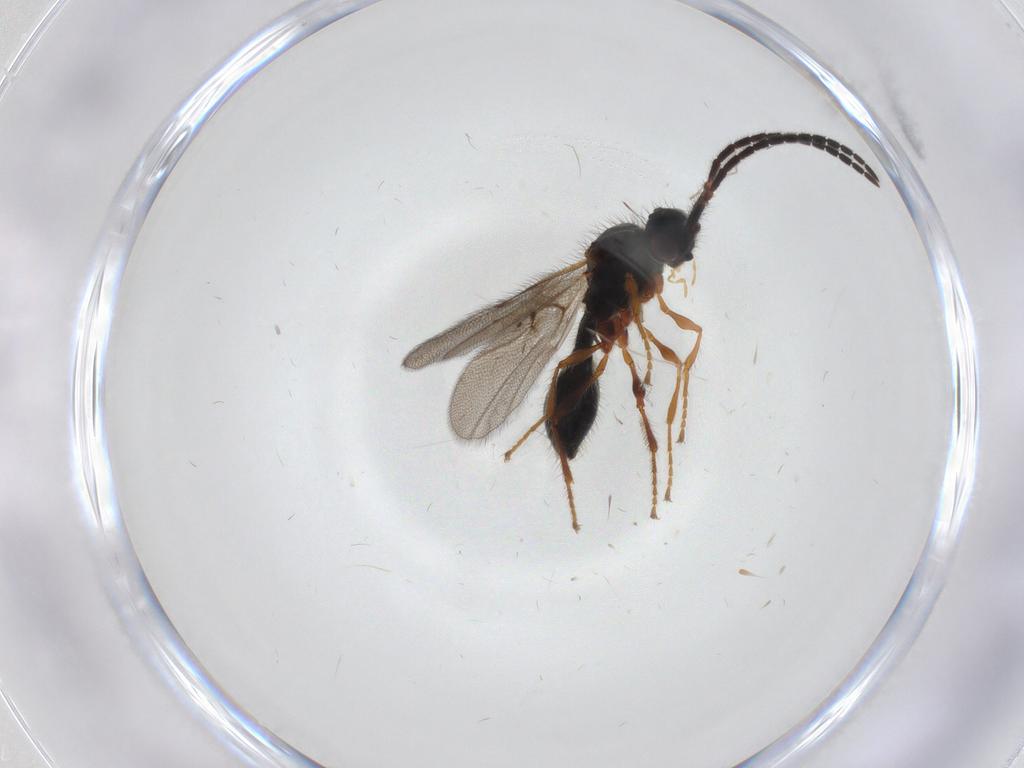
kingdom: Animalia
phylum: Arthropoda
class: Insecta
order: Hymenoptera
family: Diapriidae
